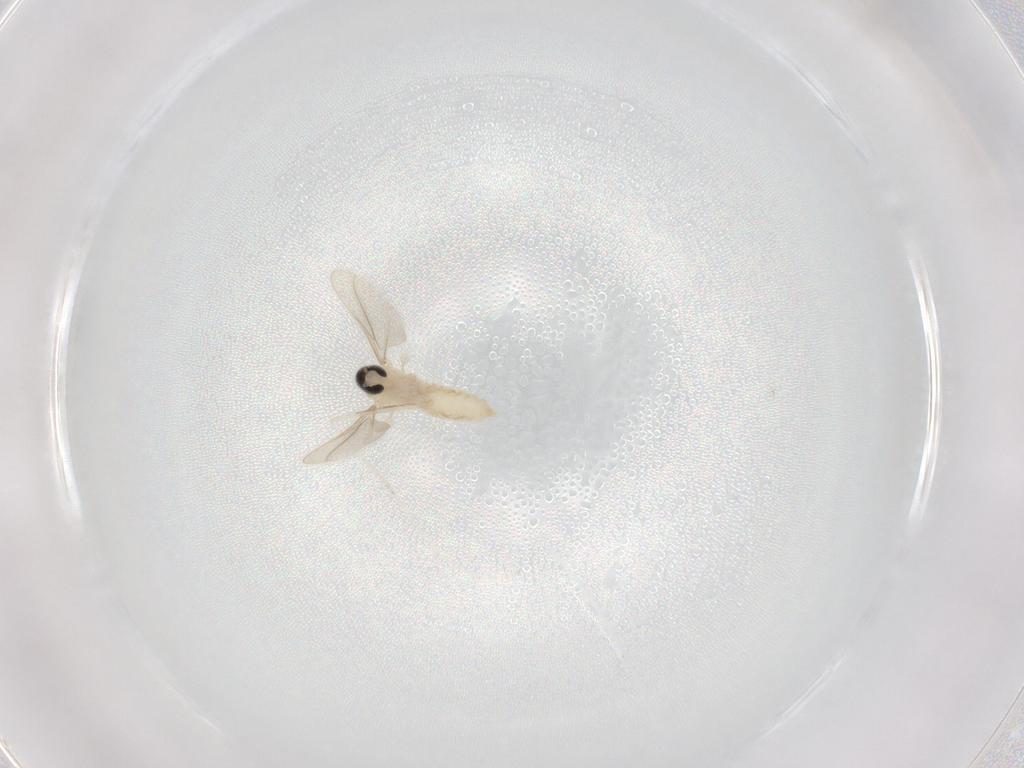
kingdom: Animalia
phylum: Arthropoda
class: Insecta
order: Diptera
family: Cecidomyiidae
